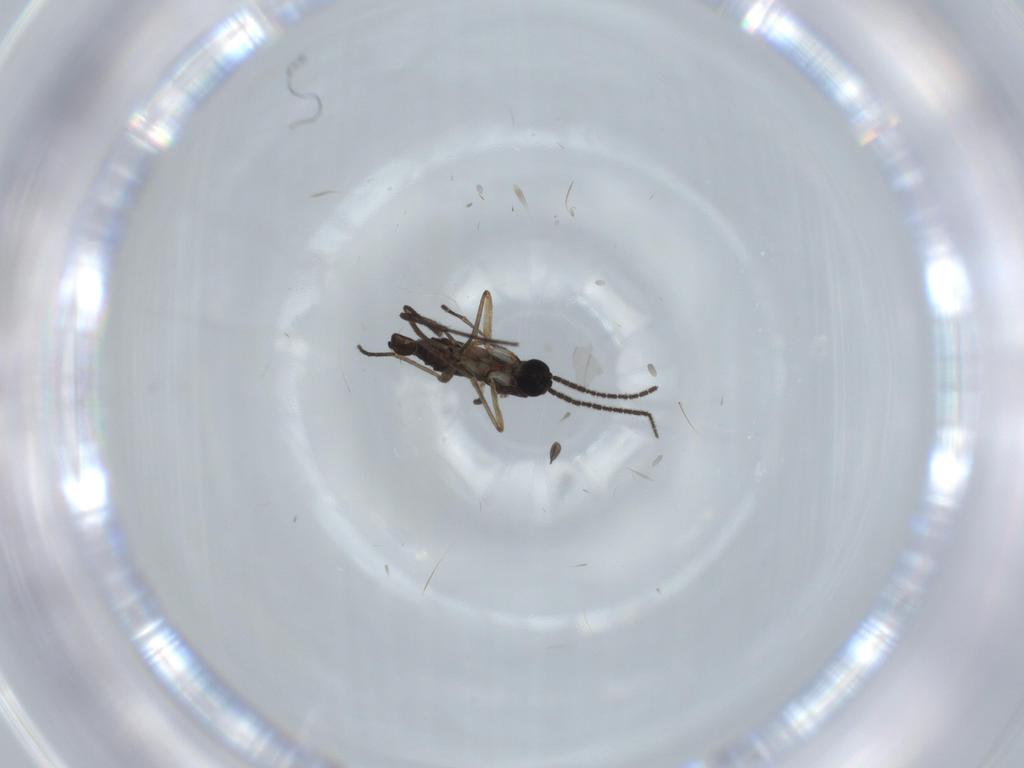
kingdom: Animalia
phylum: Arthropoda
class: Insecta
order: Diptera
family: Sciaridae
